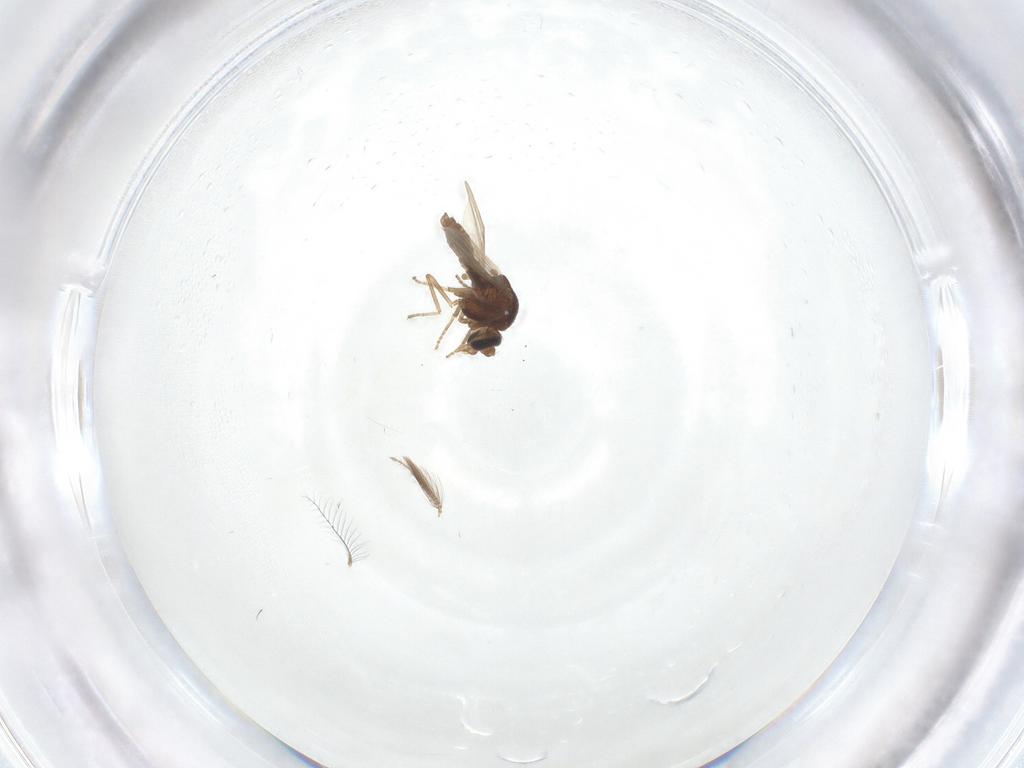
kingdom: Animalia
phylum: Arthropoda
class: Insecta
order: Diptera
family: Ceratopogonidae
